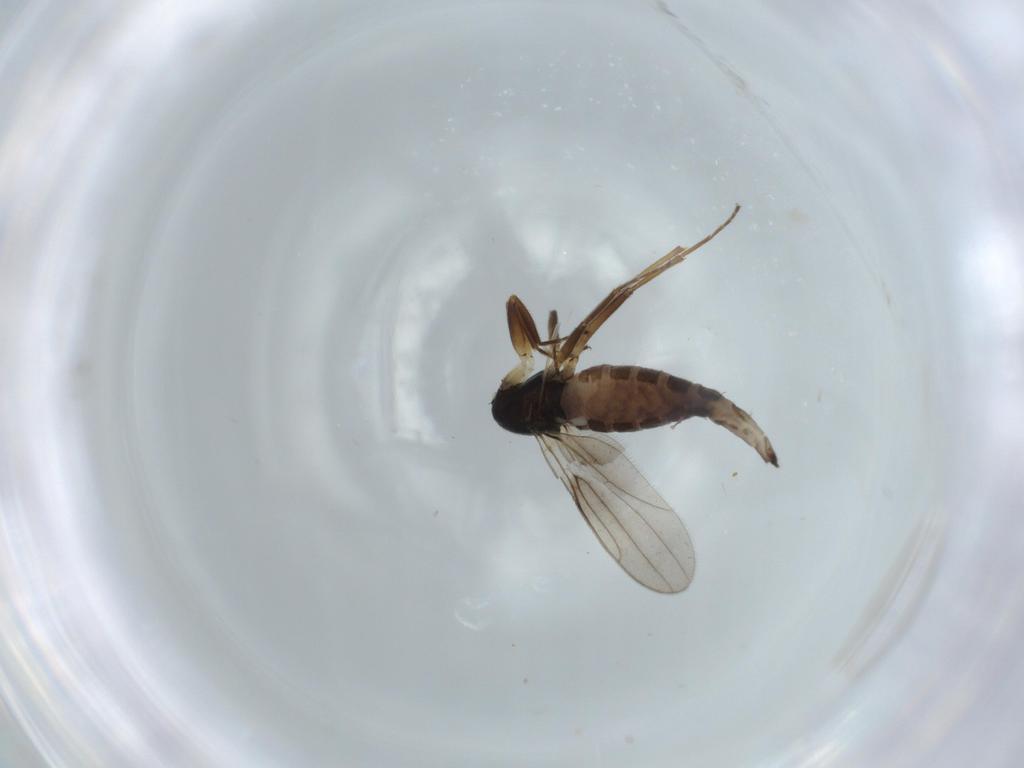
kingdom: Animalia
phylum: Arthropoda
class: Insecta
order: Diptera
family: Hybotidae
